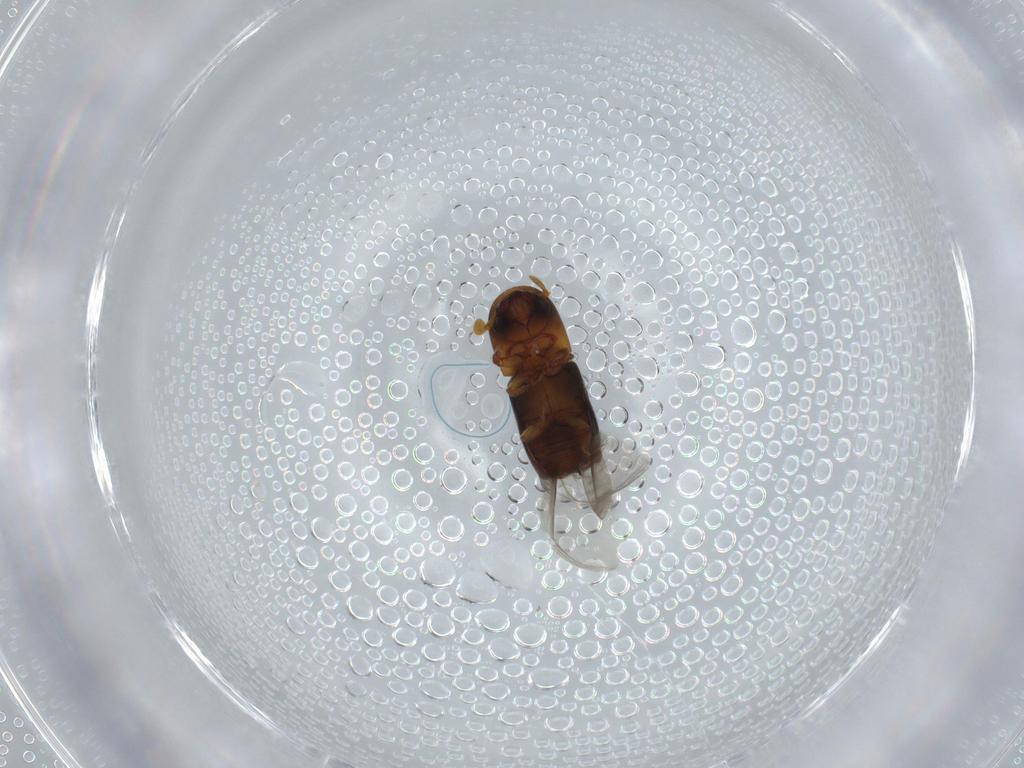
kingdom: Animalia
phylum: Arthropoda
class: Insecta
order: Coleoptera
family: Curculionidae
